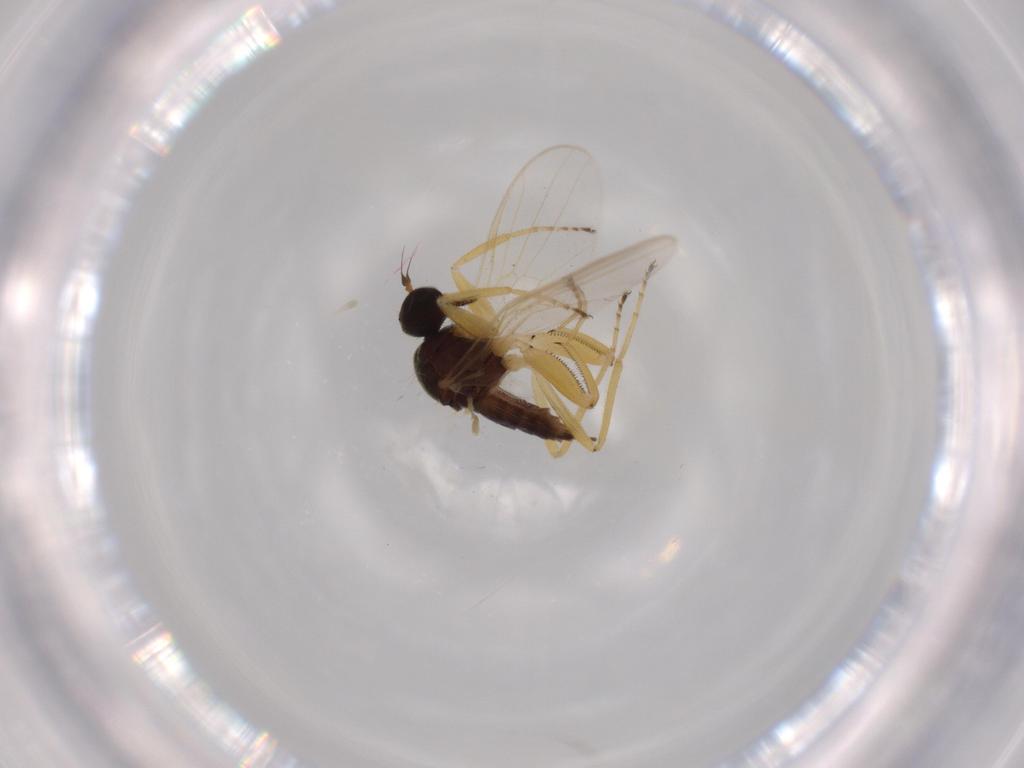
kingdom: Animalia
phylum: Arthropoda
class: Insecta
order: Diptera
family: Hybotidae
